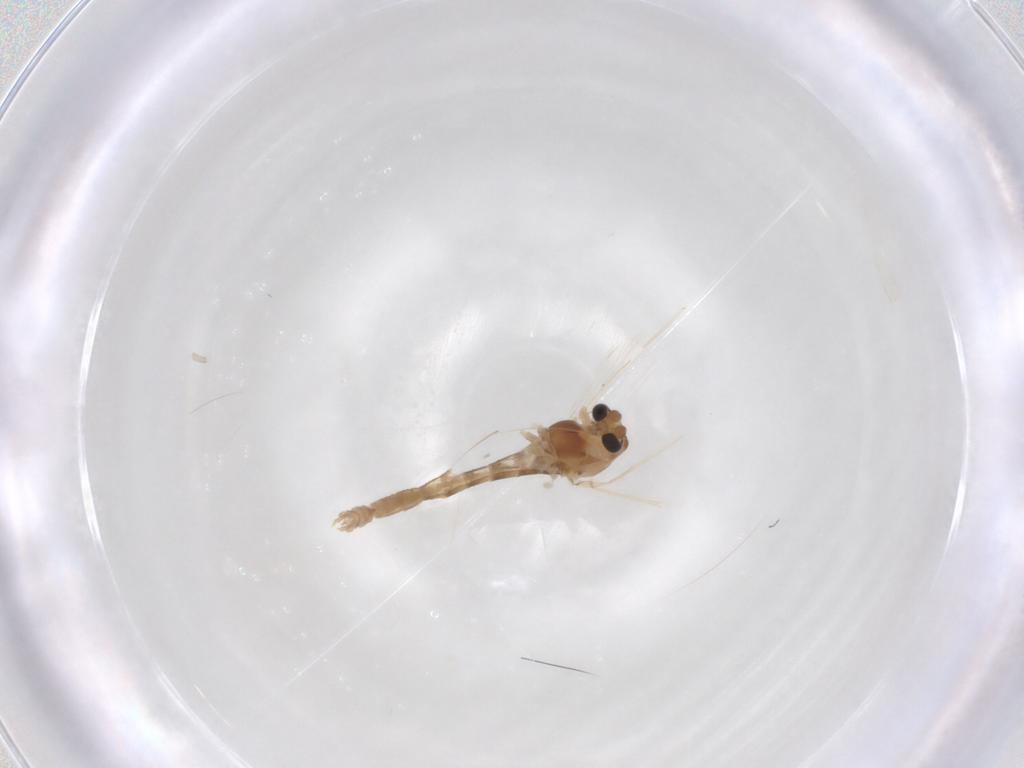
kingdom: Animalia
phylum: Arthropoda
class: Insecta
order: Diptera
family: Chironomidae
